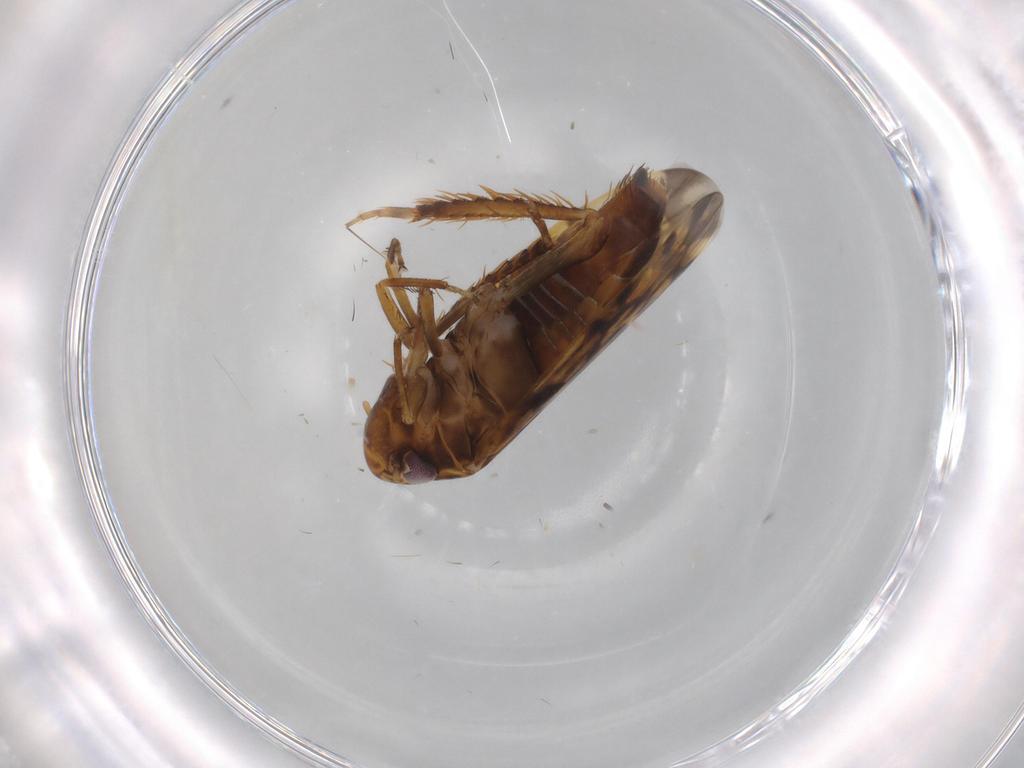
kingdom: Animalia
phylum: Arthropoda
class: Insecta
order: Hemiptera
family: Cicadellidae
